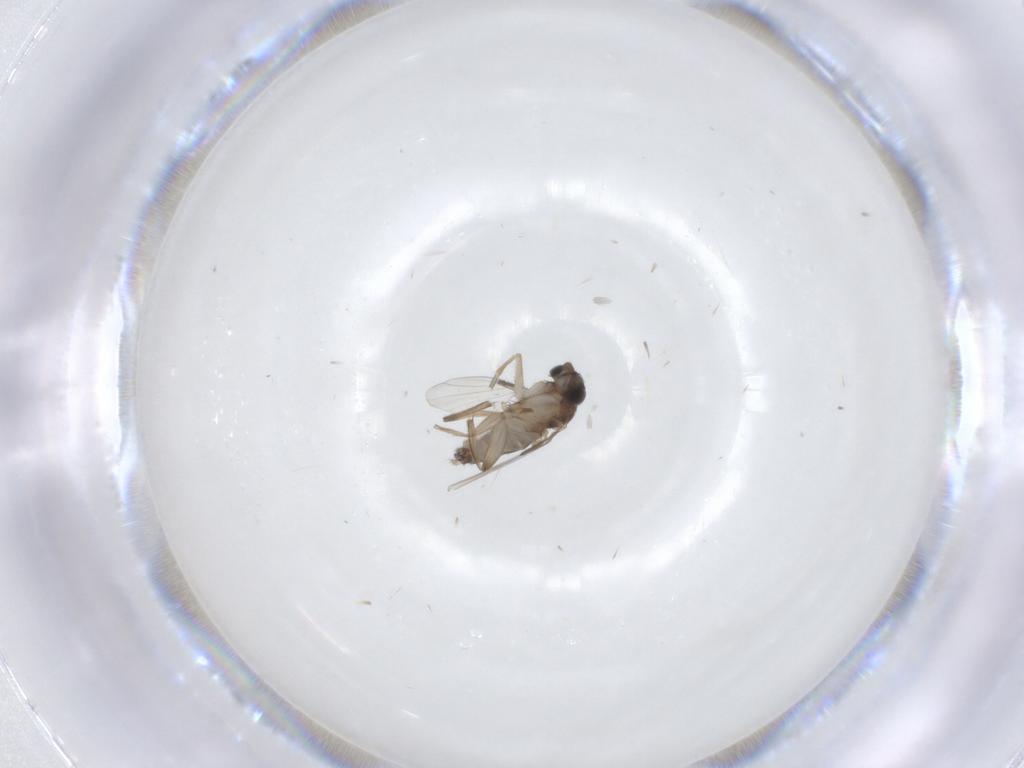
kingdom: Animalia
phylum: Arthropoda
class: Insecta
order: Diptera
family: Phoridae
